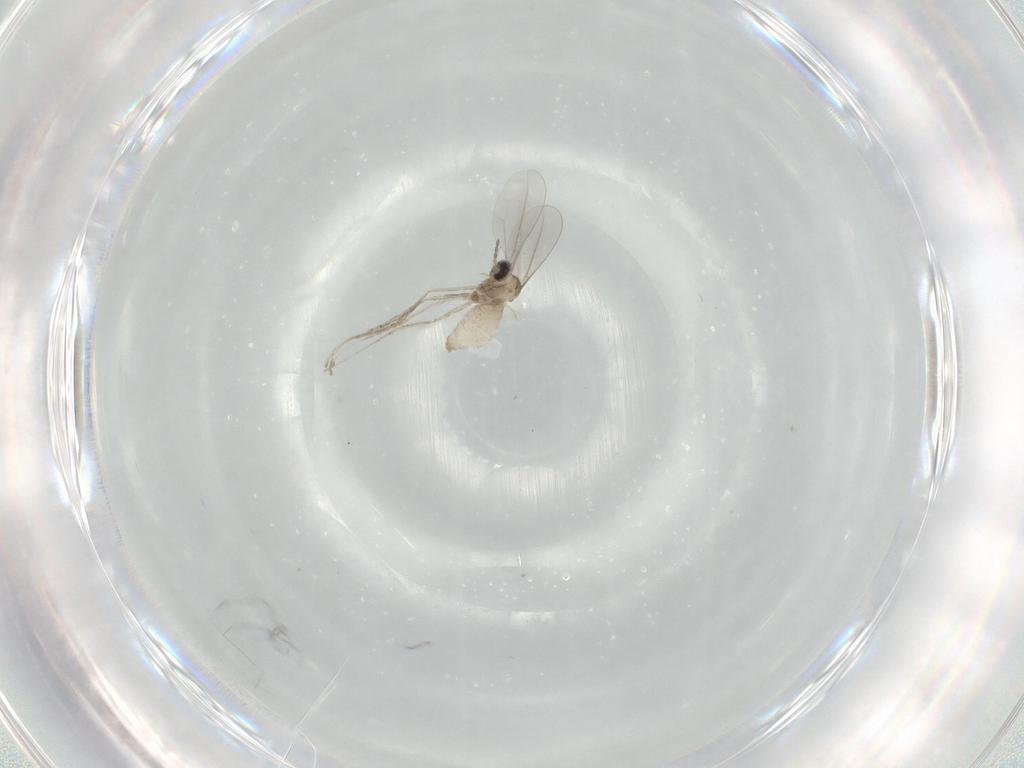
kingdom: Animalia
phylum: Arthropoda
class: Insecta
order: Diptera
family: Cecidomyiidae
